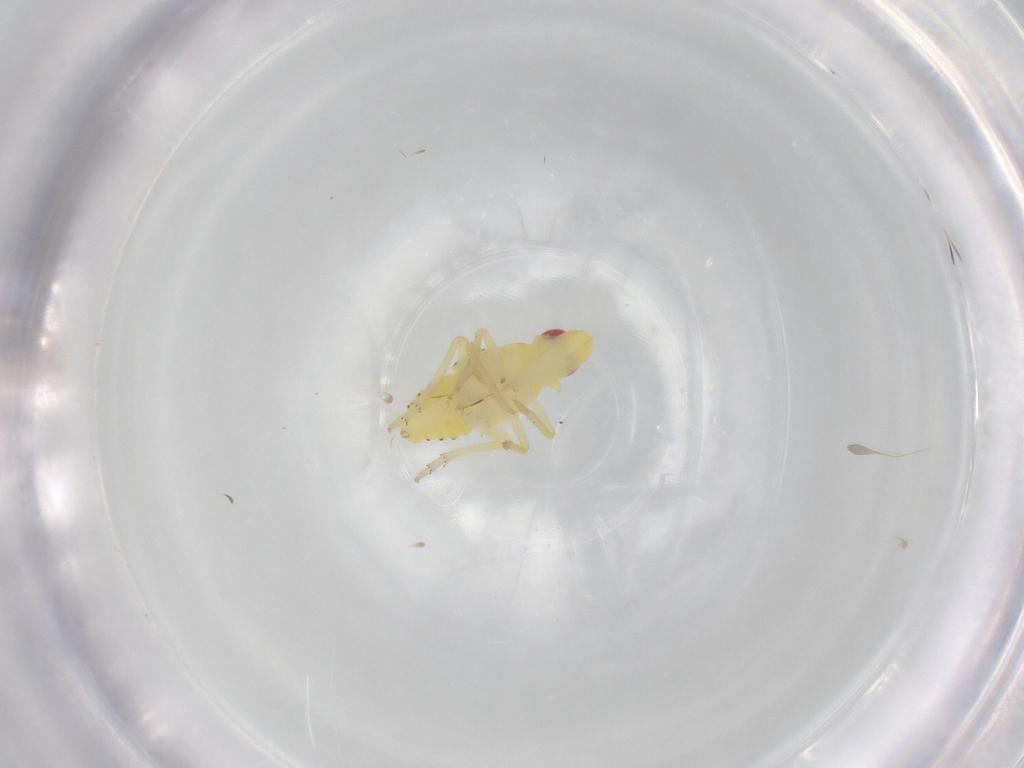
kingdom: Animalia
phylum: Arthropoda
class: Insecta
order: Hemiptera
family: Tropiduchidae
